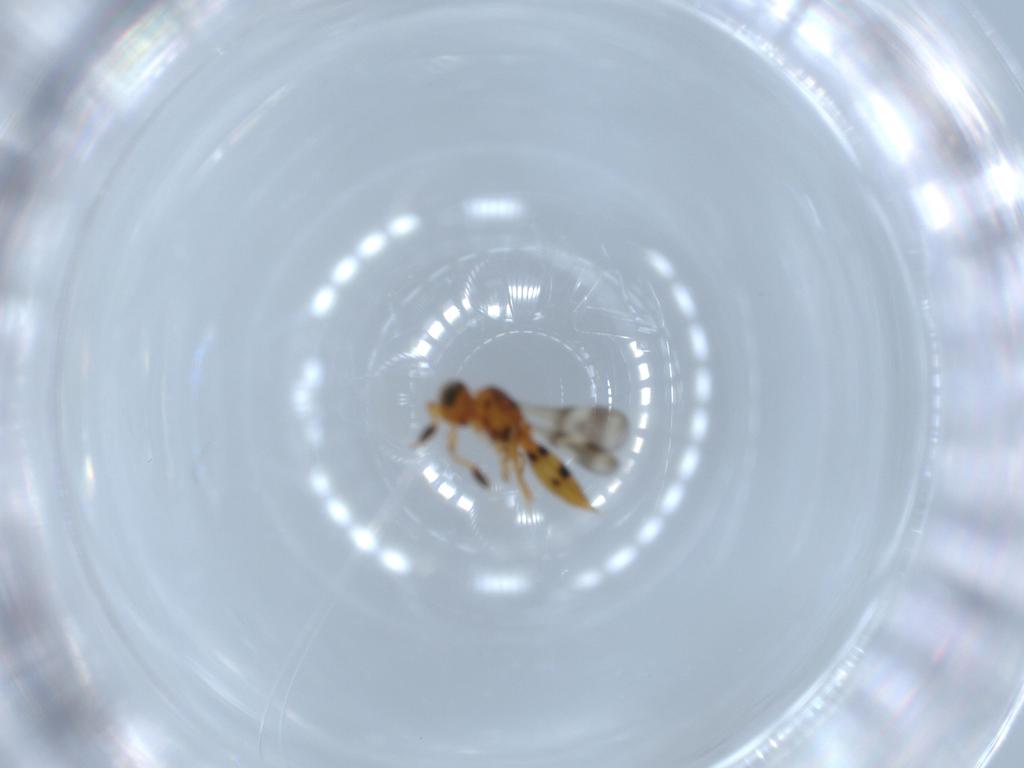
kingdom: Animalia
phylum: Arthropoda
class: Insecta
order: Hymenoptera
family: Scelionidae
